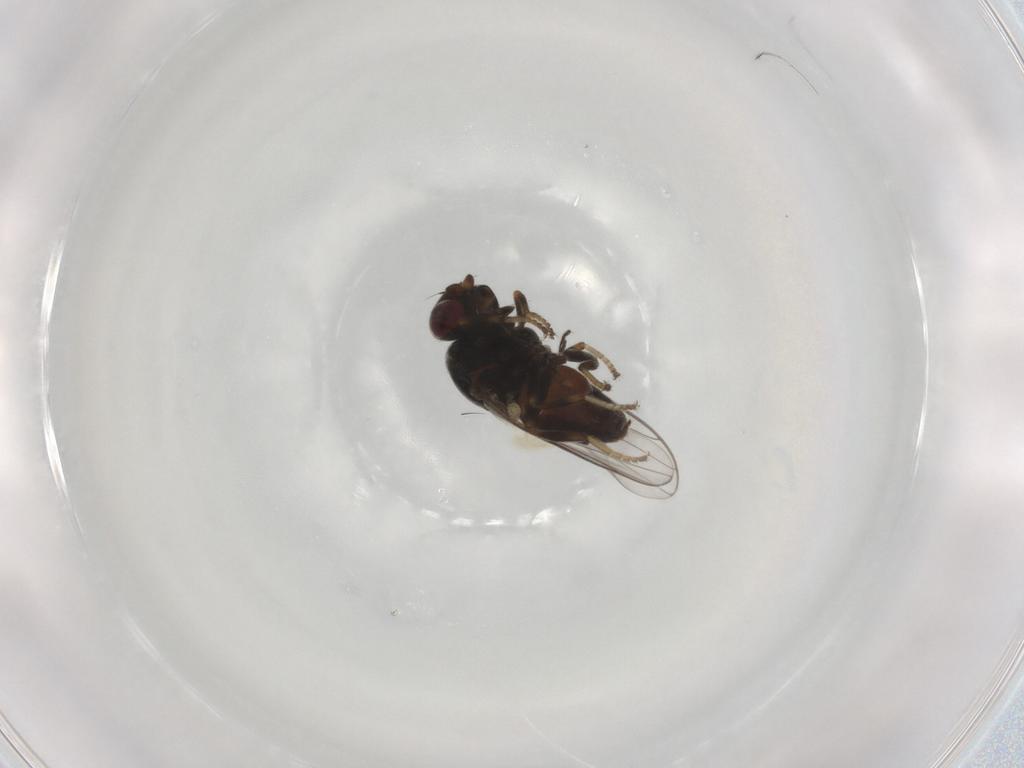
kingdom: Animalia
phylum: Arthropoda
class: Insecta
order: Diptera
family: Chloropidae
